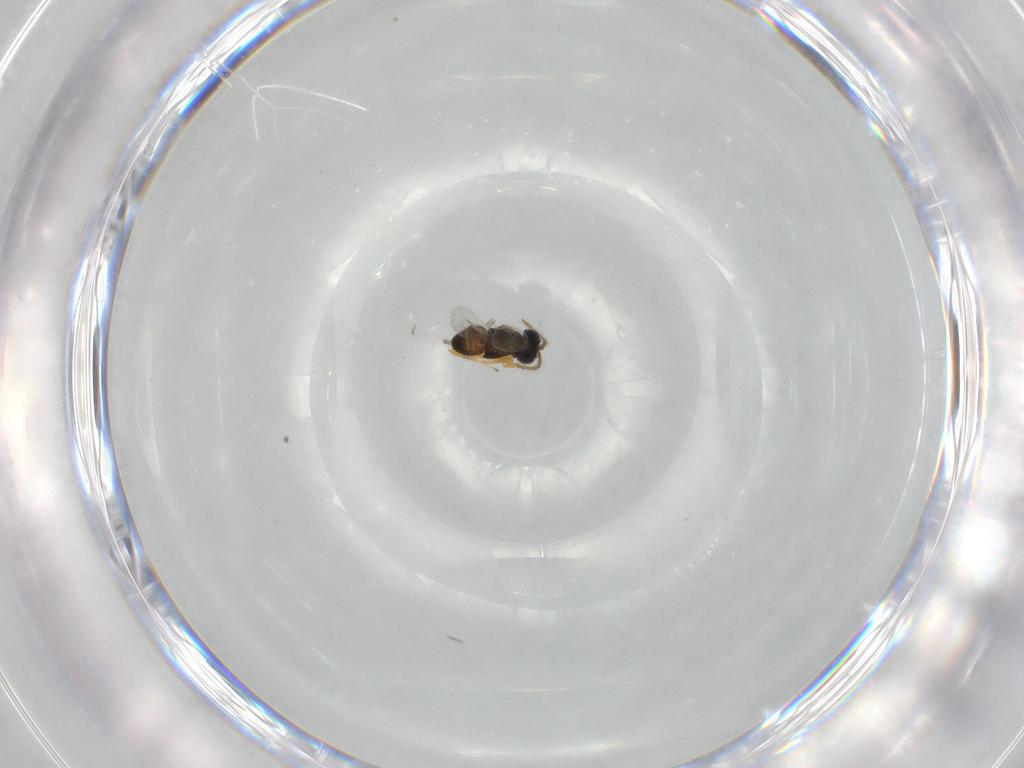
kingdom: Animalia
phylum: Arthropoda
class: Insecta
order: Hymenoptera
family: Encyrtidae
